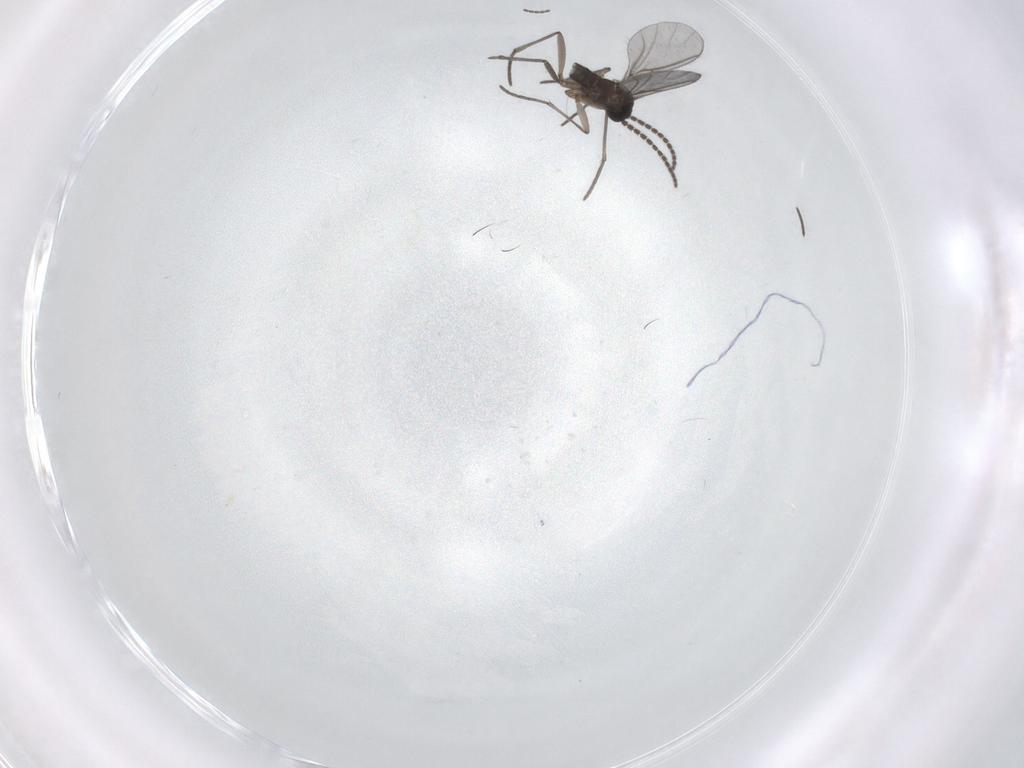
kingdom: Animalia
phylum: Arthropoda
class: Insecta
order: Diptera
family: Cecidomyiidae
